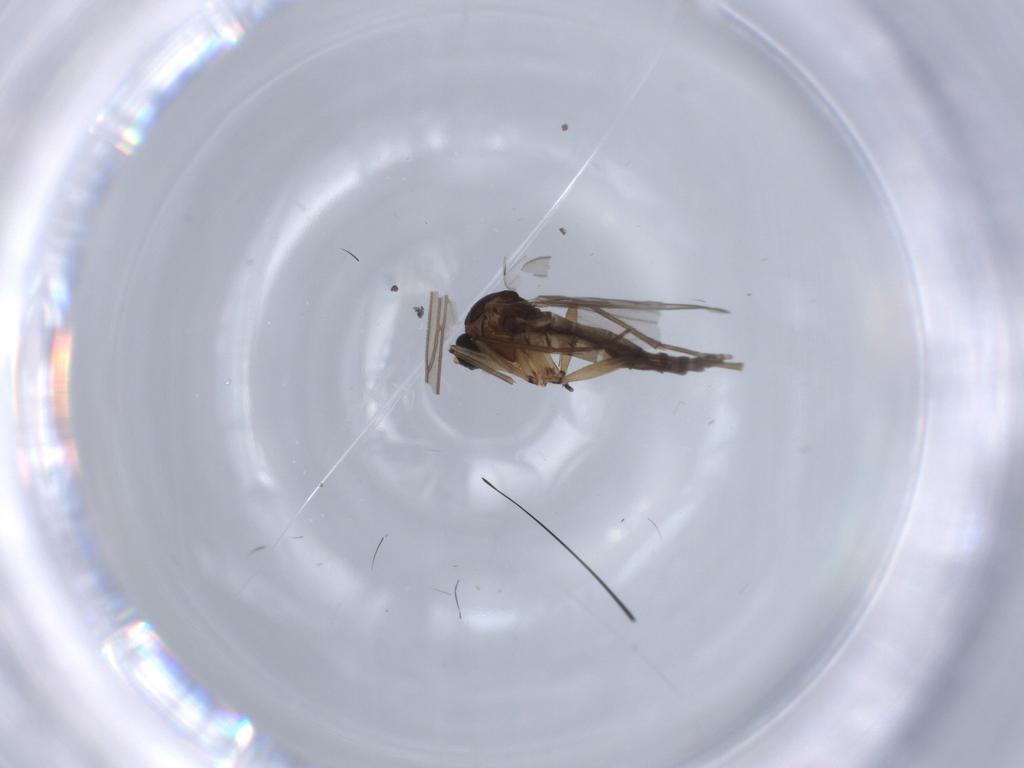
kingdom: Animalia
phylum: Arthropoda
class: Insecta
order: Diptera
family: Sciaridae
